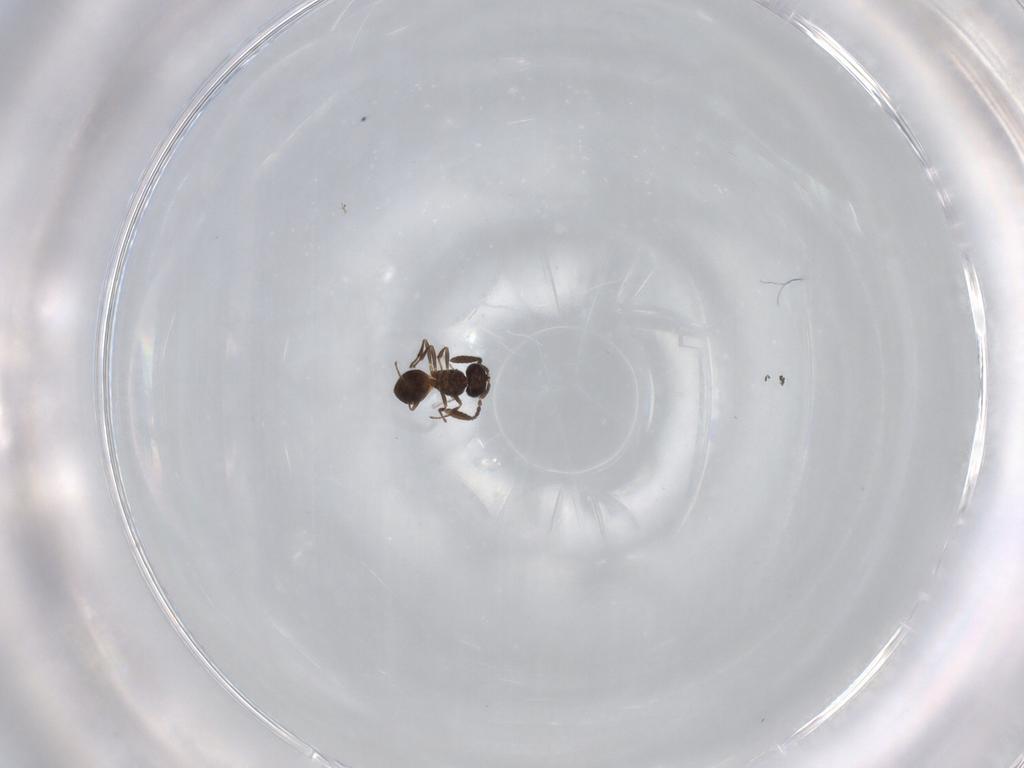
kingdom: Animalia
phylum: Arthropoda
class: Insecta
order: Hymenoptera
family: Scelionidae
